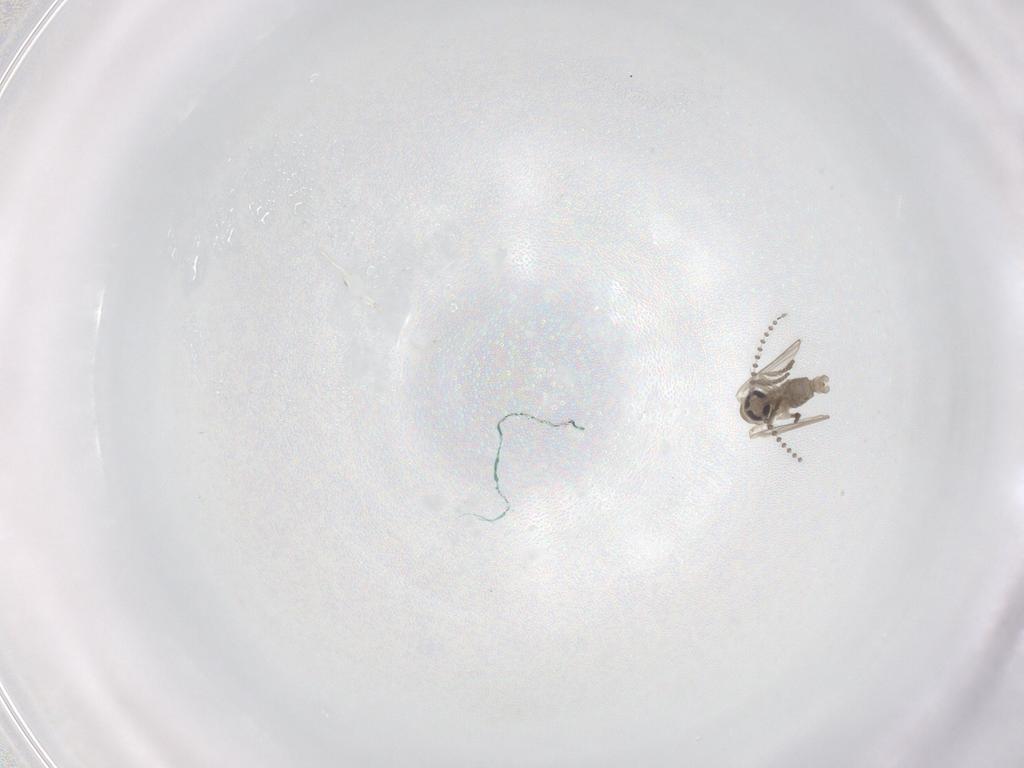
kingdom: Animalia
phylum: Arthropoda
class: Insecta
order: Diptera
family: Psychodidae
